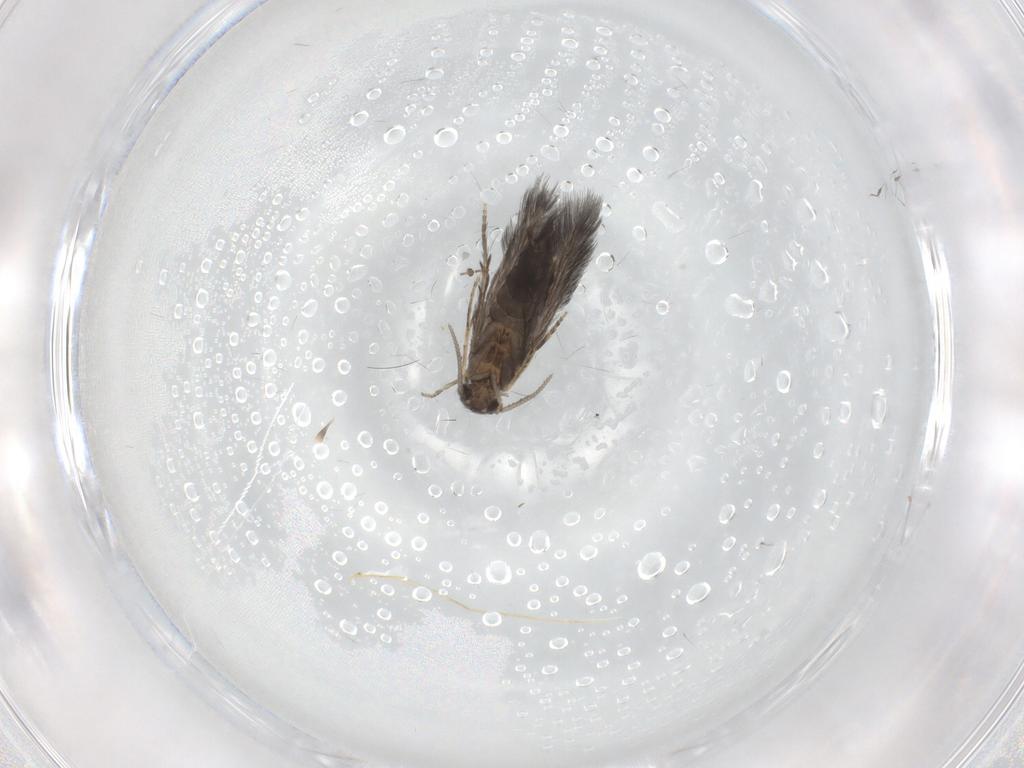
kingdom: Animalia
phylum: Arthropoda
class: Insecta
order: Trichoptera
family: Hydroptilidae
